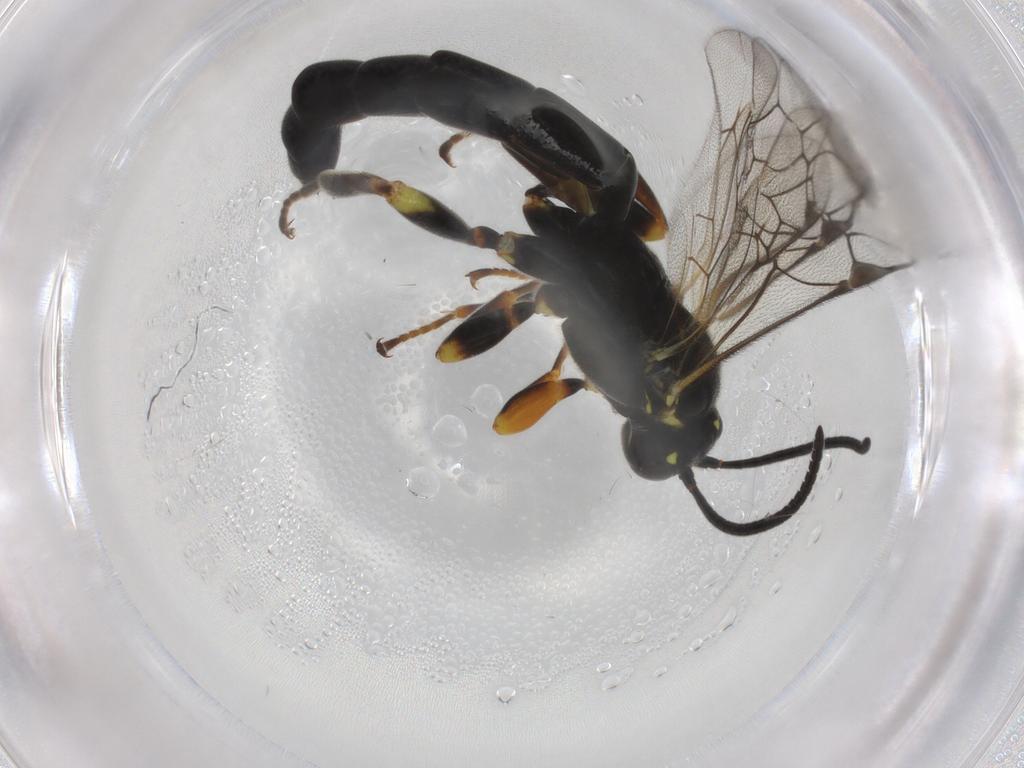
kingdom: Animalia
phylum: Arthropoda
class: Insecta
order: Hymenoptera
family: Ichneumonidae
